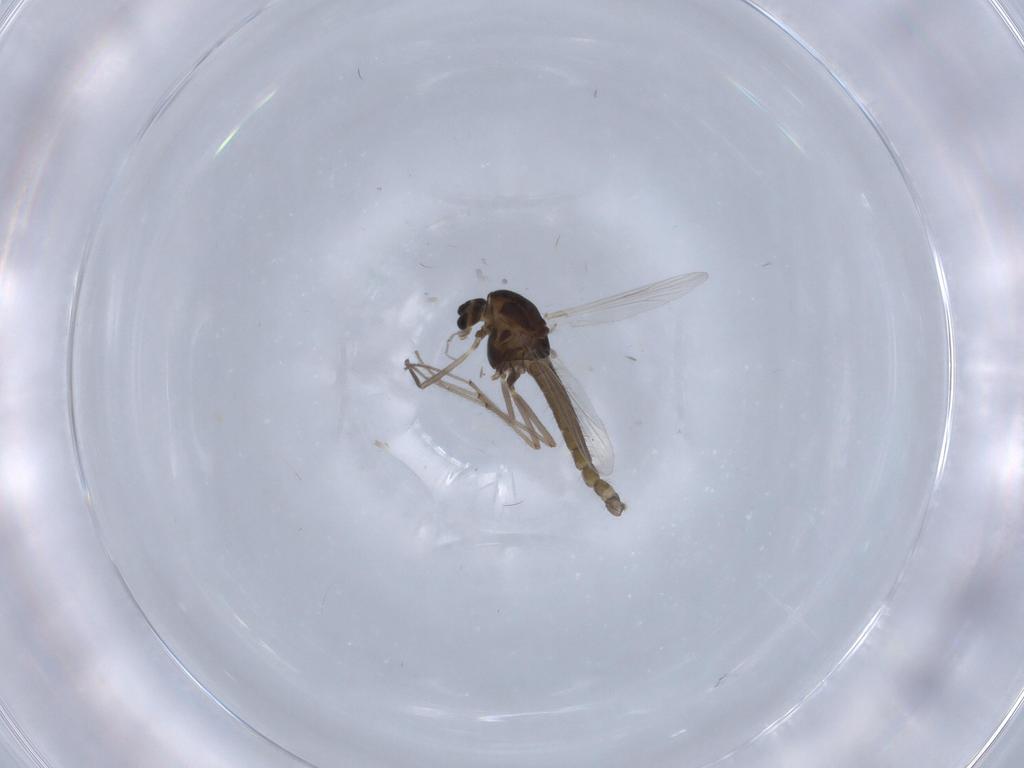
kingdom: Animalia
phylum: Arthropoda
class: Insecta
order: Diptera
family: Chironomidae
